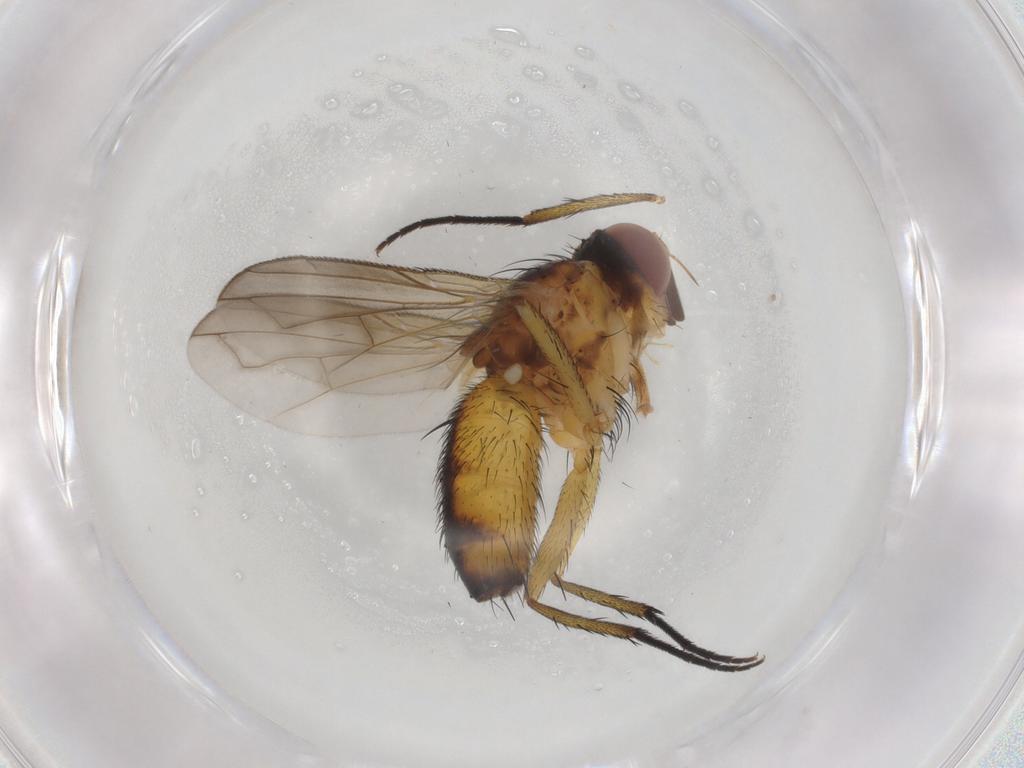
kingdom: Animalia
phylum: Arthropoda
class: Insecta
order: Diptera
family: Tachinidae
